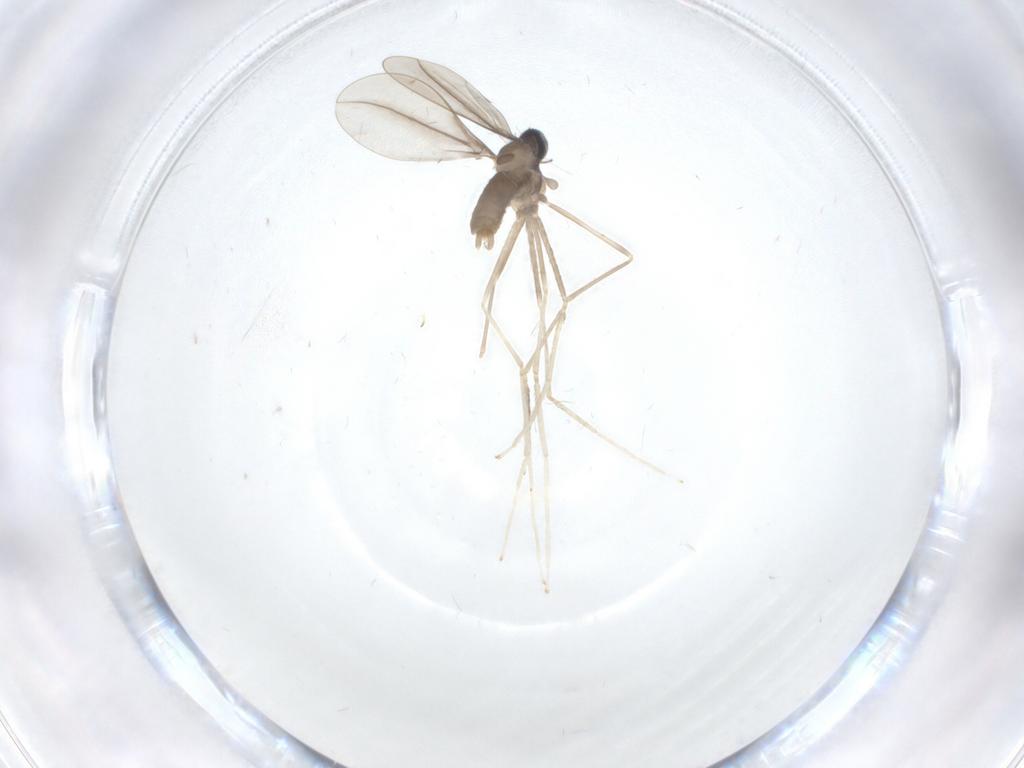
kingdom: Animalia
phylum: Arthropoda
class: Insecta
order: Diptera
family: Cecidomyiidae
